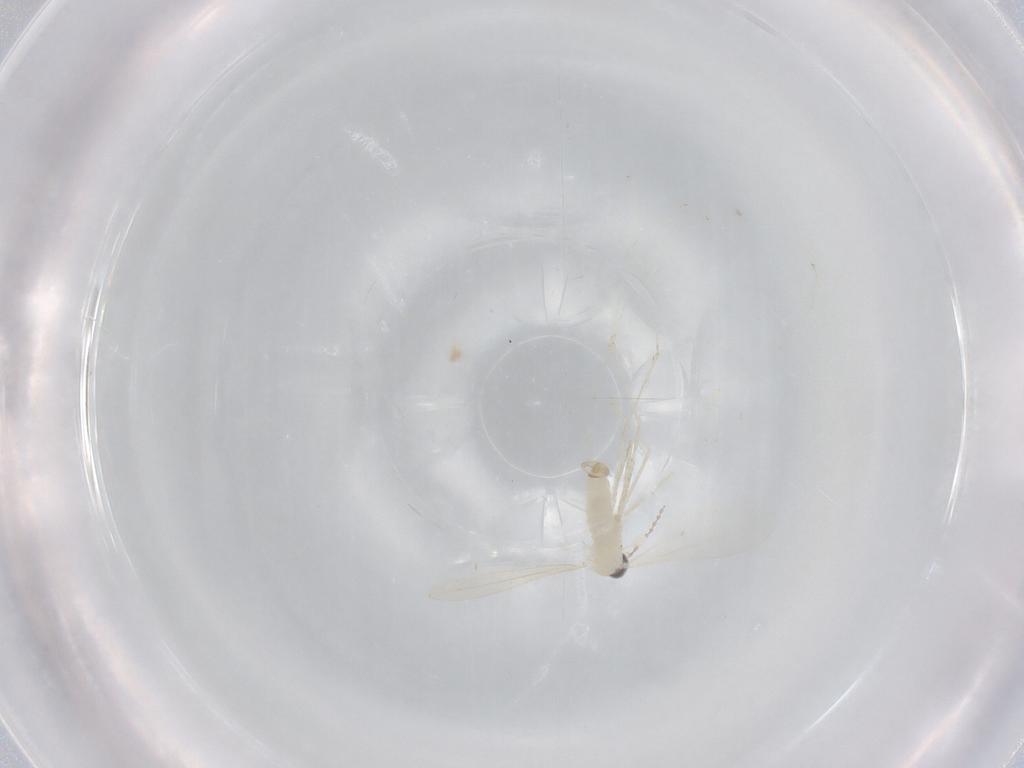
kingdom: Animalia
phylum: Arthropoda
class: Insecta
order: Diptera
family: Cecidomyiidae
